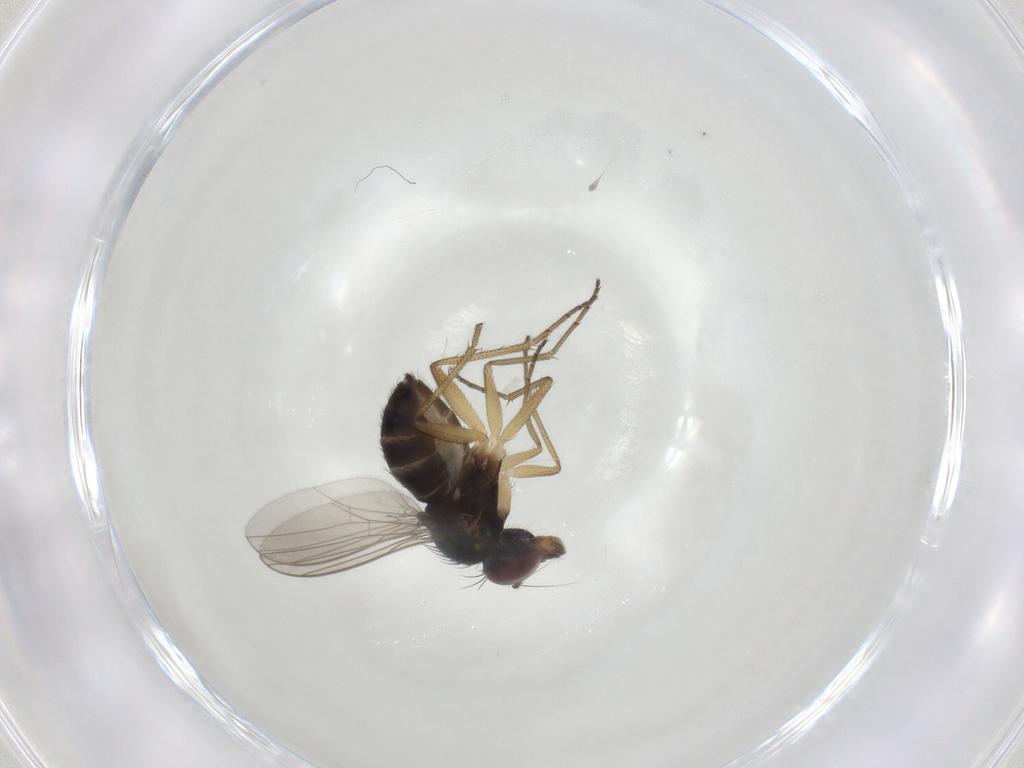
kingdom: Animalia
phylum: Arthropoda
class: Insecta
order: Diptera
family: Dolichopodidae
